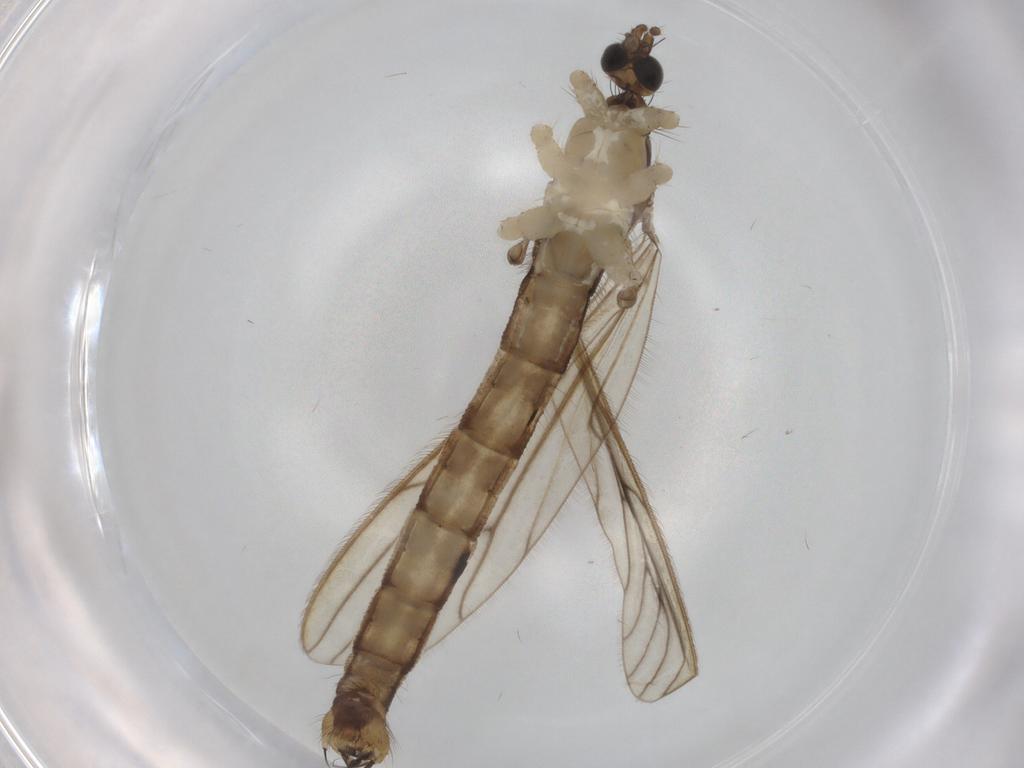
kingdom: Animalia
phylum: Arthropoda
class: Insecta
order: Diptera
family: Limoniidae
